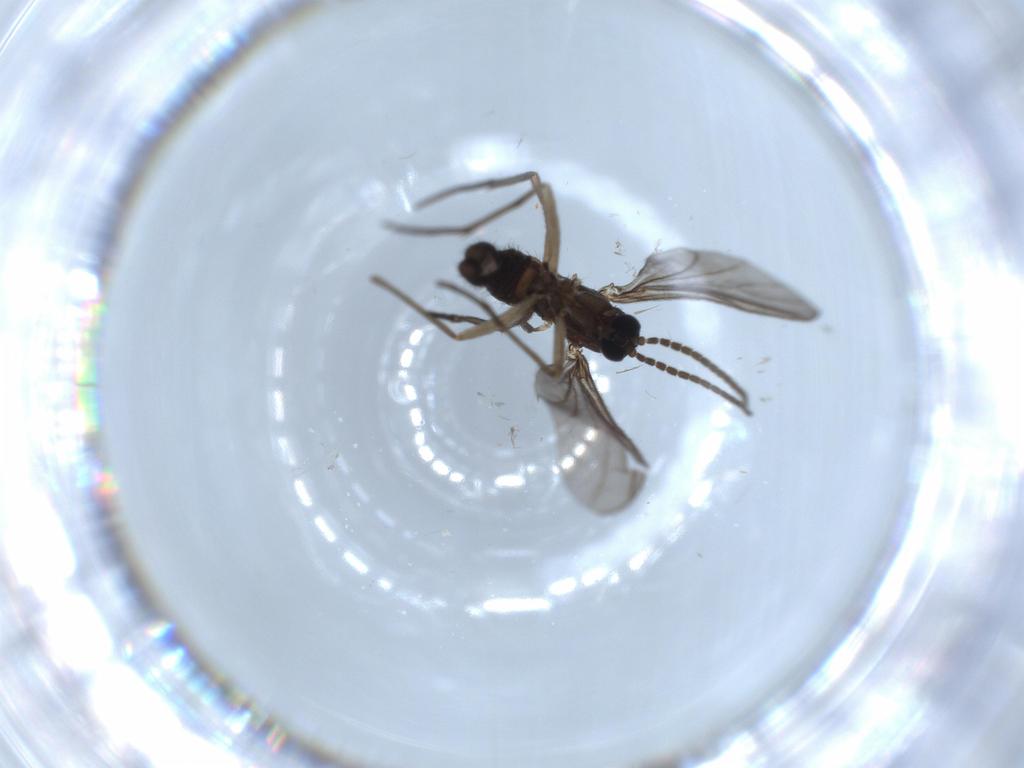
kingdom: Animalia
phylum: Arthropoda
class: Insecta
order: Diptera
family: Sciaridae
